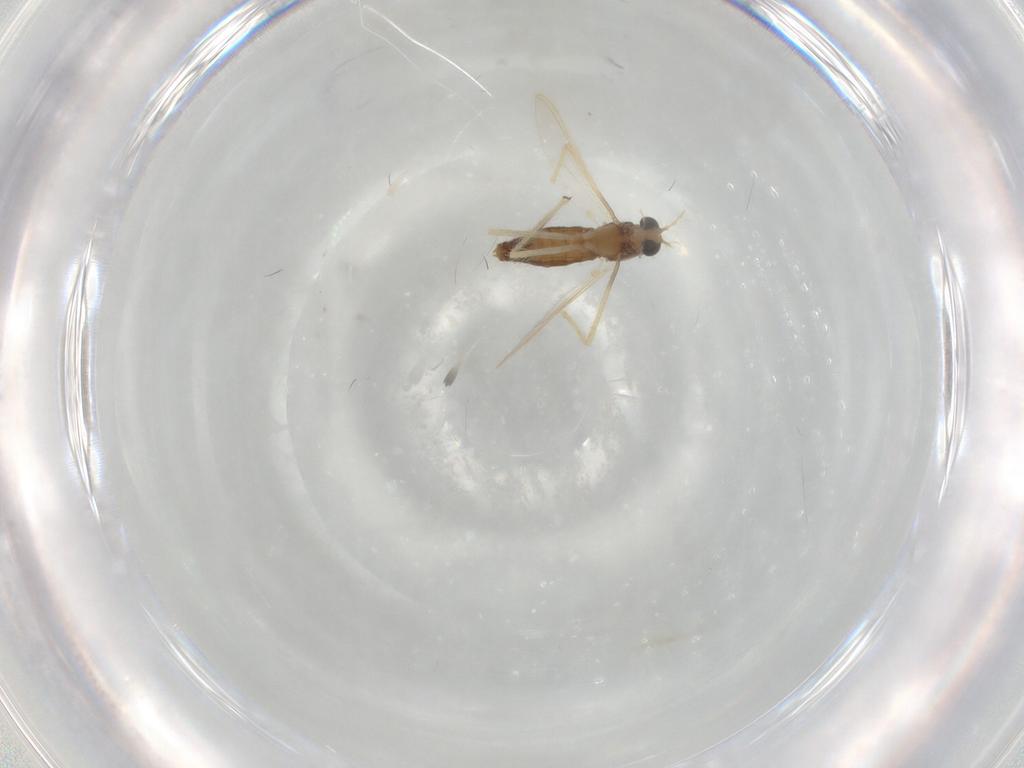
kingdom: Animalia
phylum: Arthropoda
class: Insecta
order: Diptera
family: Chironomidae
